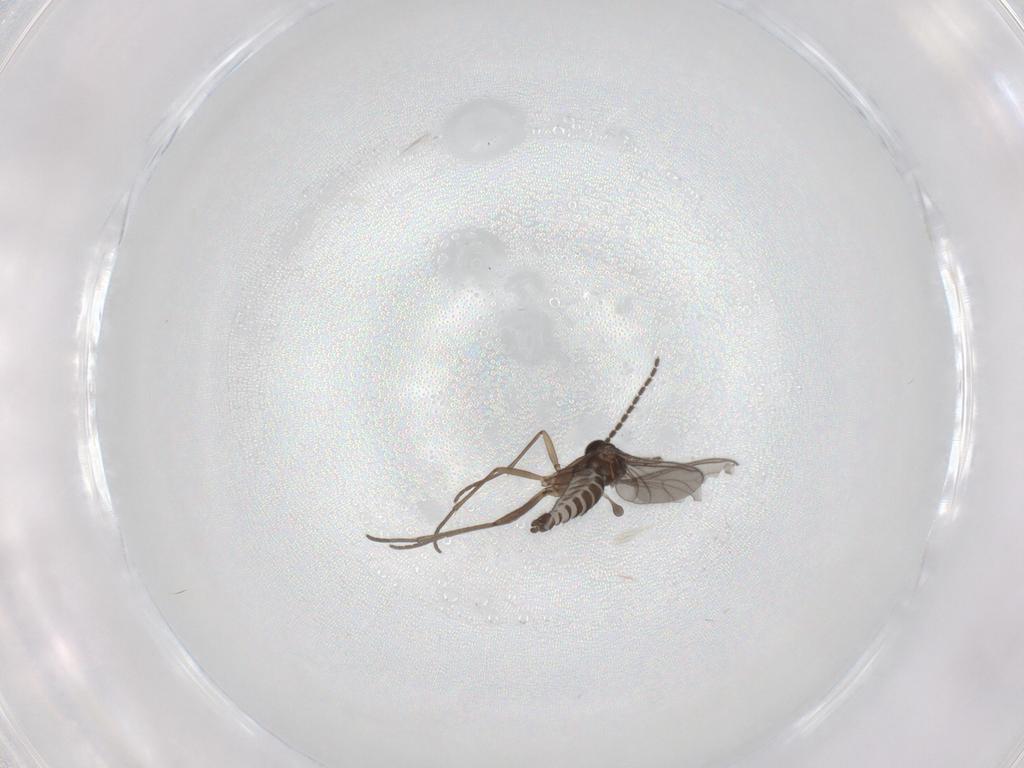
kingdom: Animalia
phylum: Arthropoda
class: Insecta
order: Diptera
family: Sciaridae
